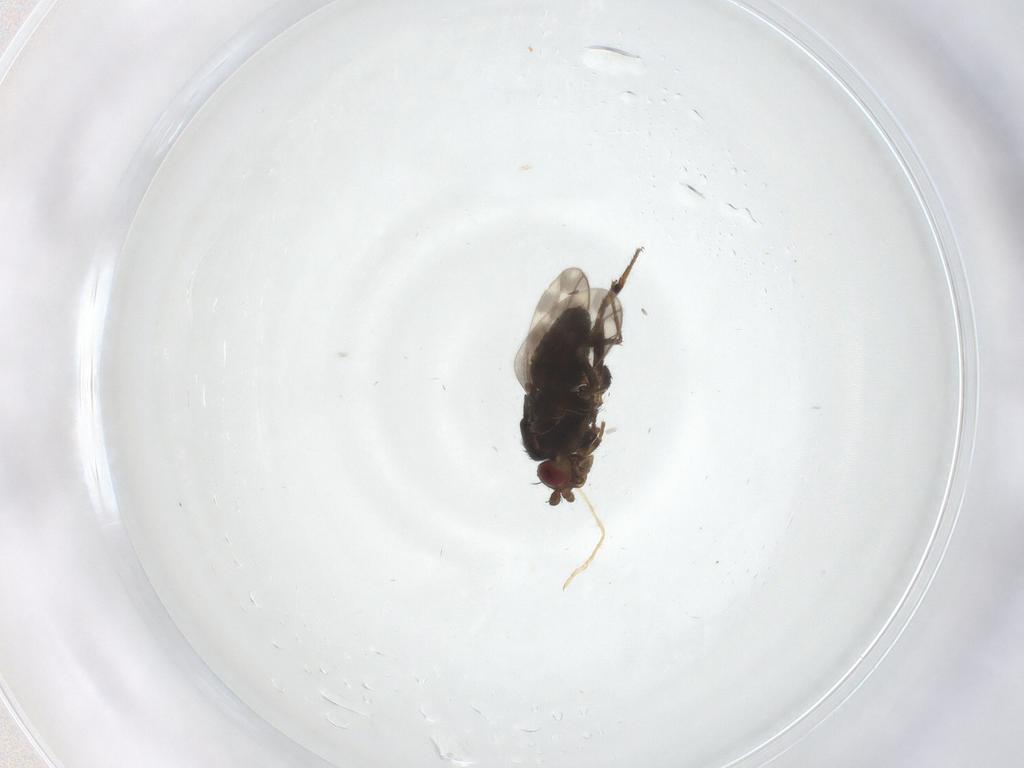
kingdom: Animalia
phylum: Arthropoda
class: Insecta
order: Diptera
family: Sphaeroceridae
